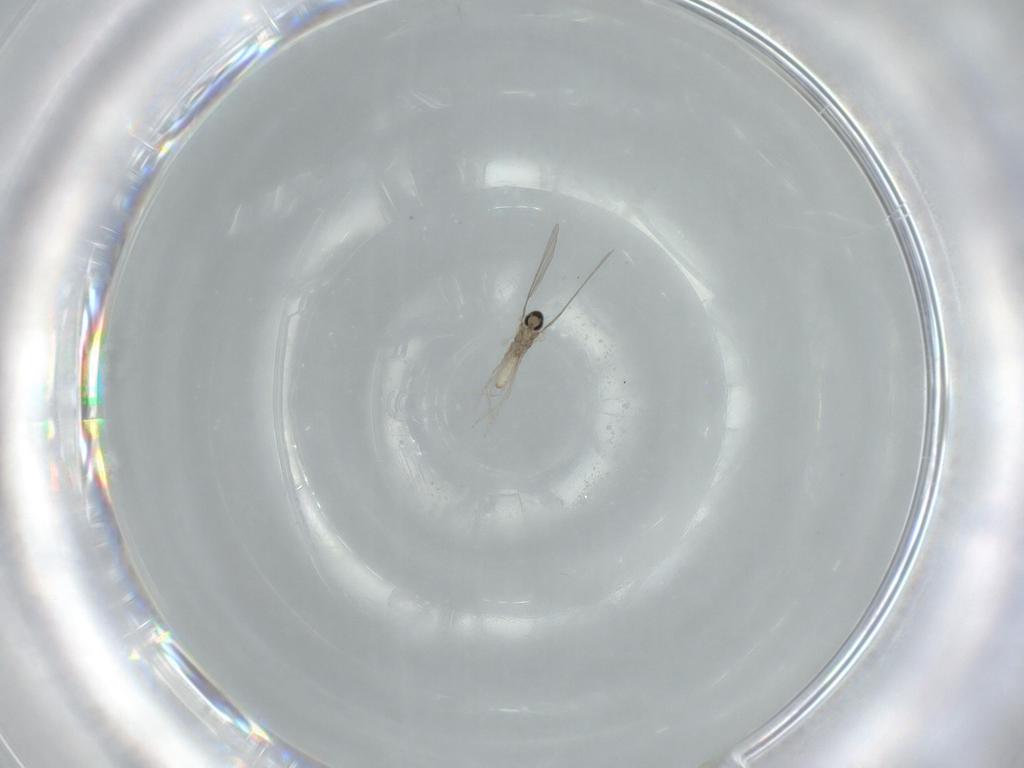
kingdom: Animalia
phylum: Arthropoda
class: Insecta
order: Diptera
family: Cecidomyiidae
